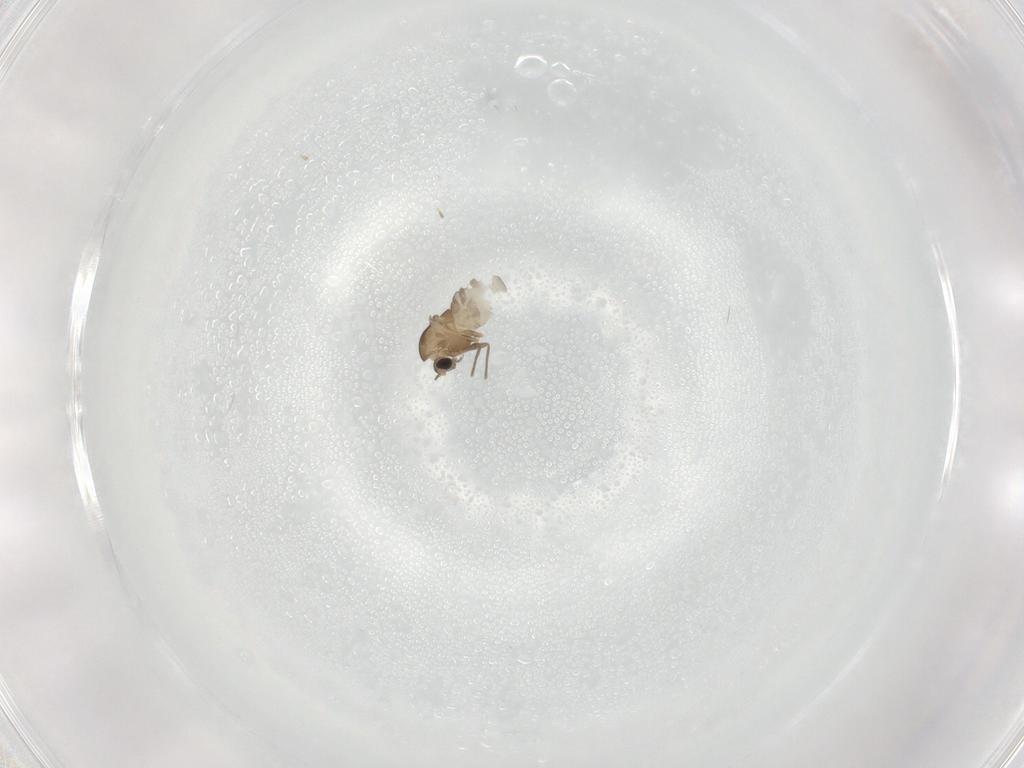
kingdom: Animalia
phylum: Arthropoda
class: Insecta
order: Diptera
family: Chironomidae
